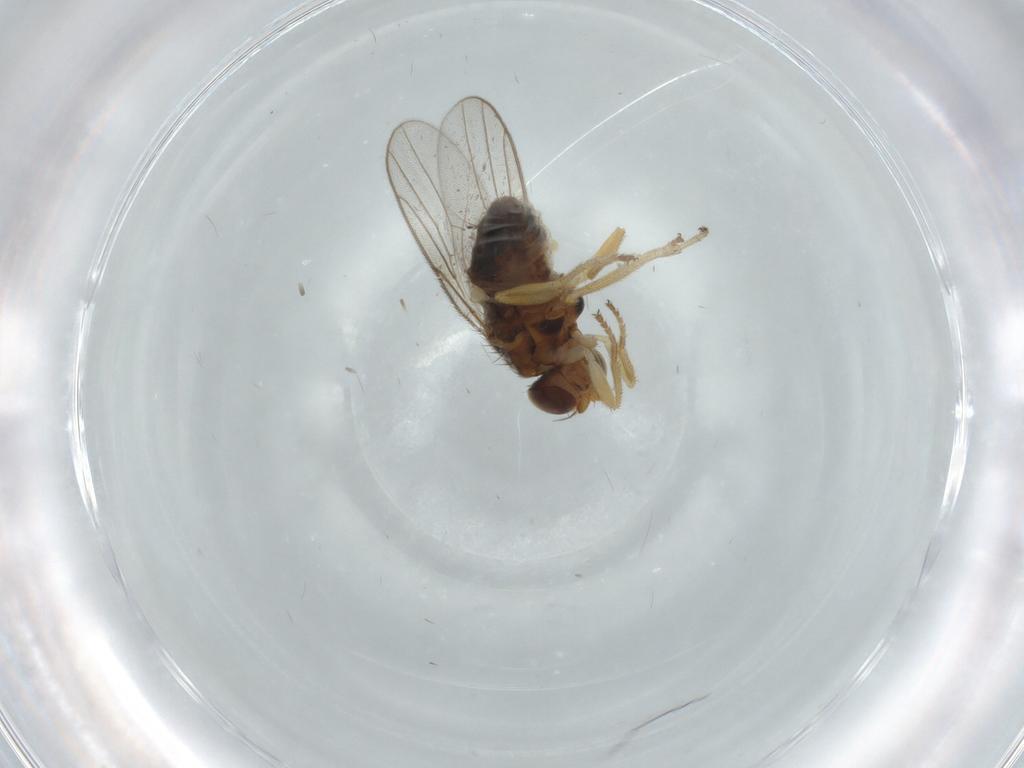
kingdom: Animalia
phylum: Arthropoda
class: Insecta
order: Diptera
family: Chloropidae
